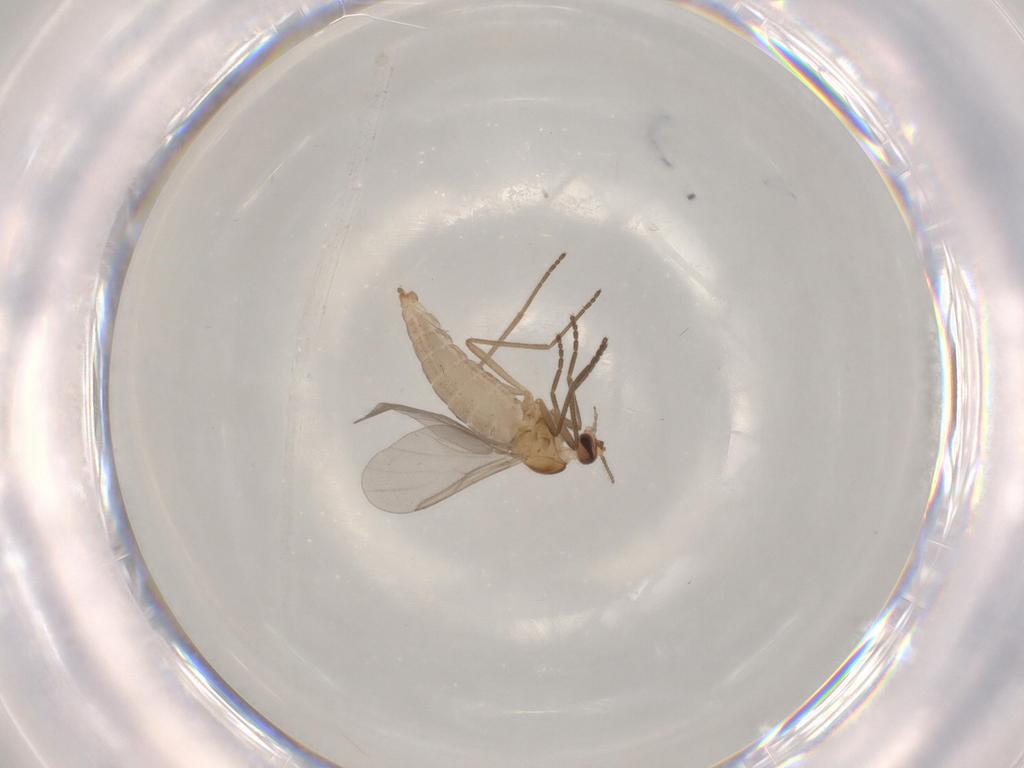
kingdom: Animalia
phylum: Arthropoda
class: Insecta
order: Diptera
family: Cecidomyiidae
